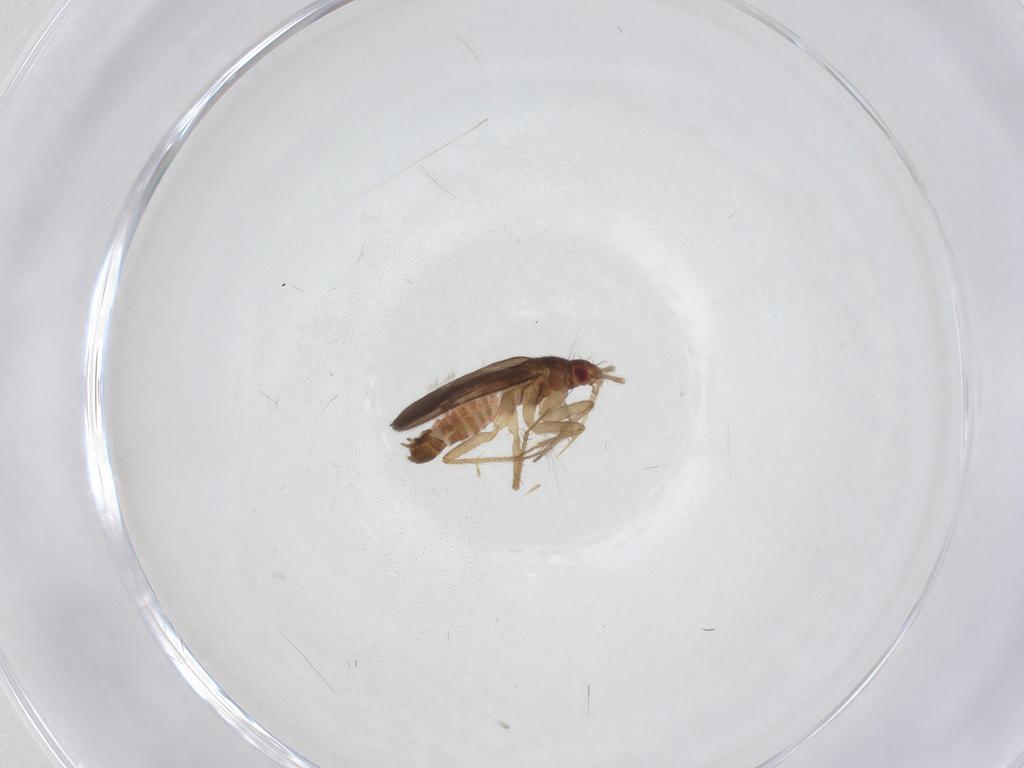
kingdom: Animalia
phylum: Arthropoda
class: Insecta
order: Hemiptera
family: Ceratocombidae
